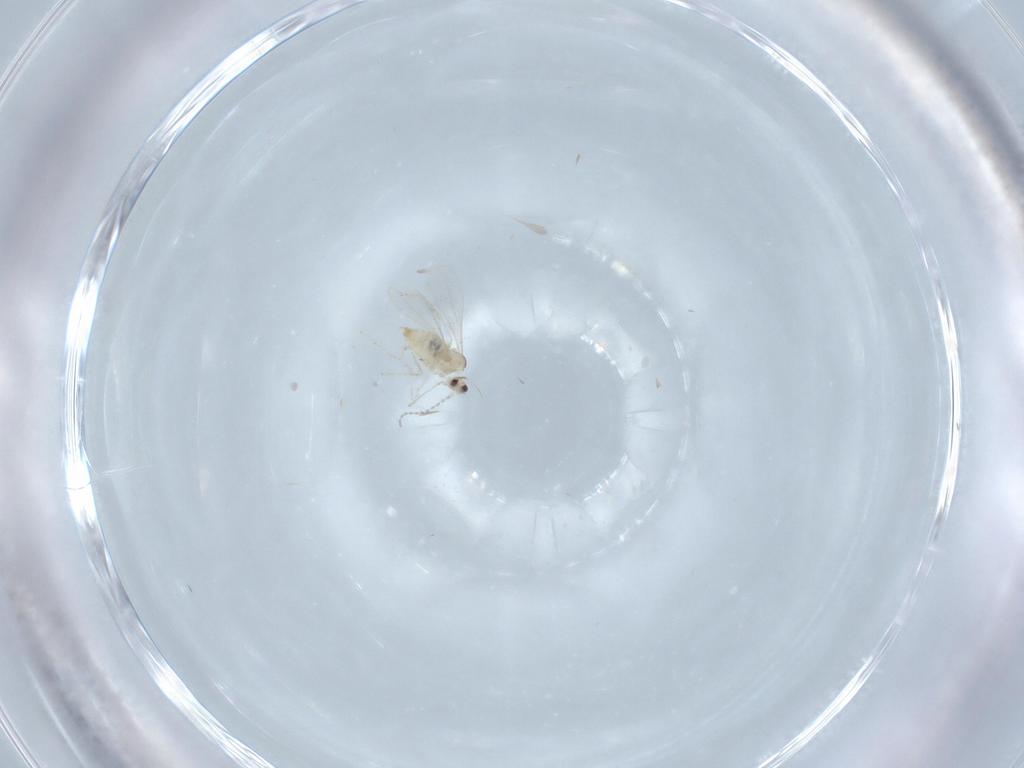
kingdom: Animalia
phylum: Arthropoda
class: Insecta
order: Diptera
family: Cecidomyiidae
